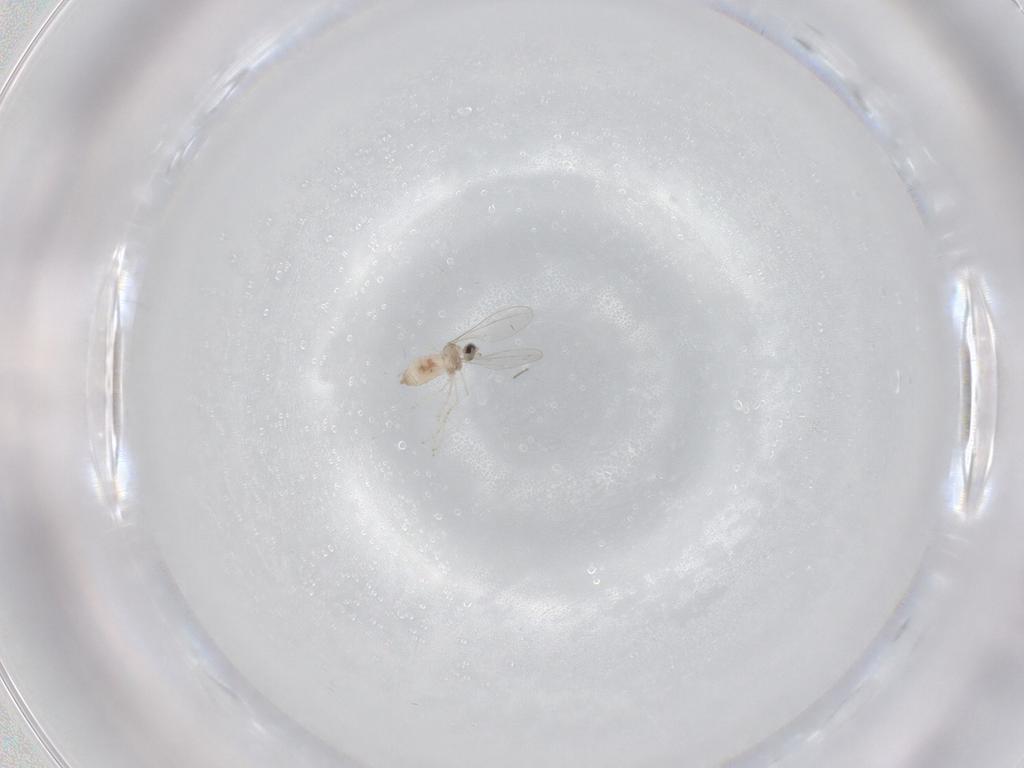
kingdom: Animalia
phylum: Arthropoda
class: Insecta
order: Diptera
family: Cecidomyiidae
